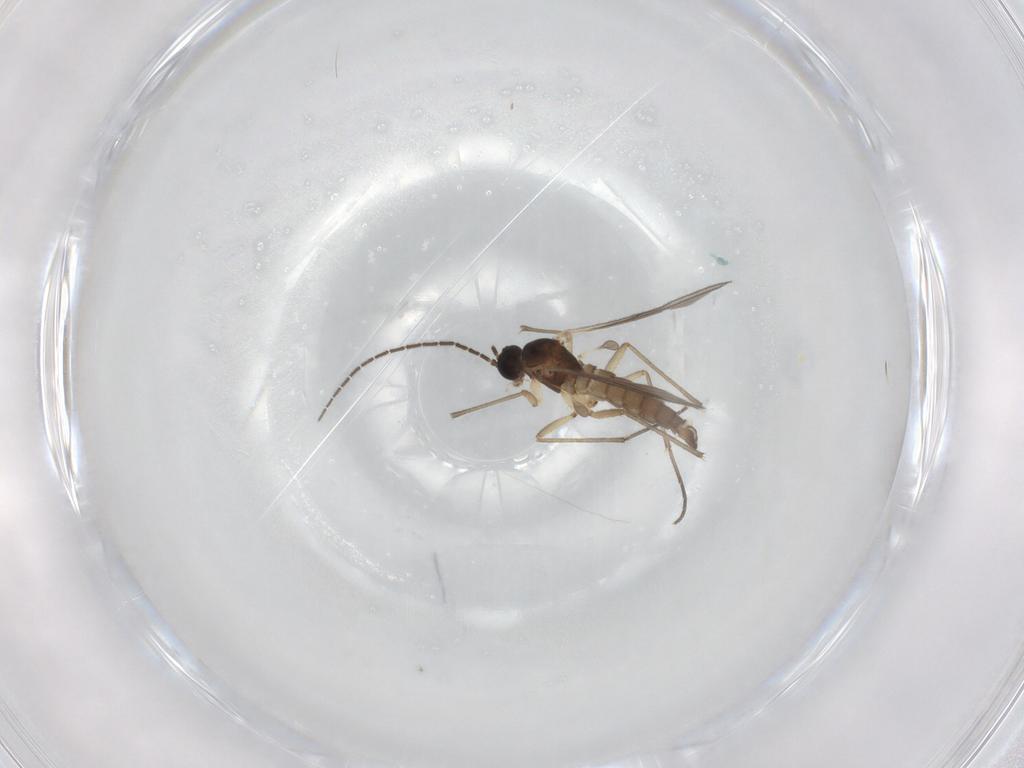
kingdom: Animalia
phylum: Arthropoda
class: Insecta
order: Diptera
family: Sciaridae
